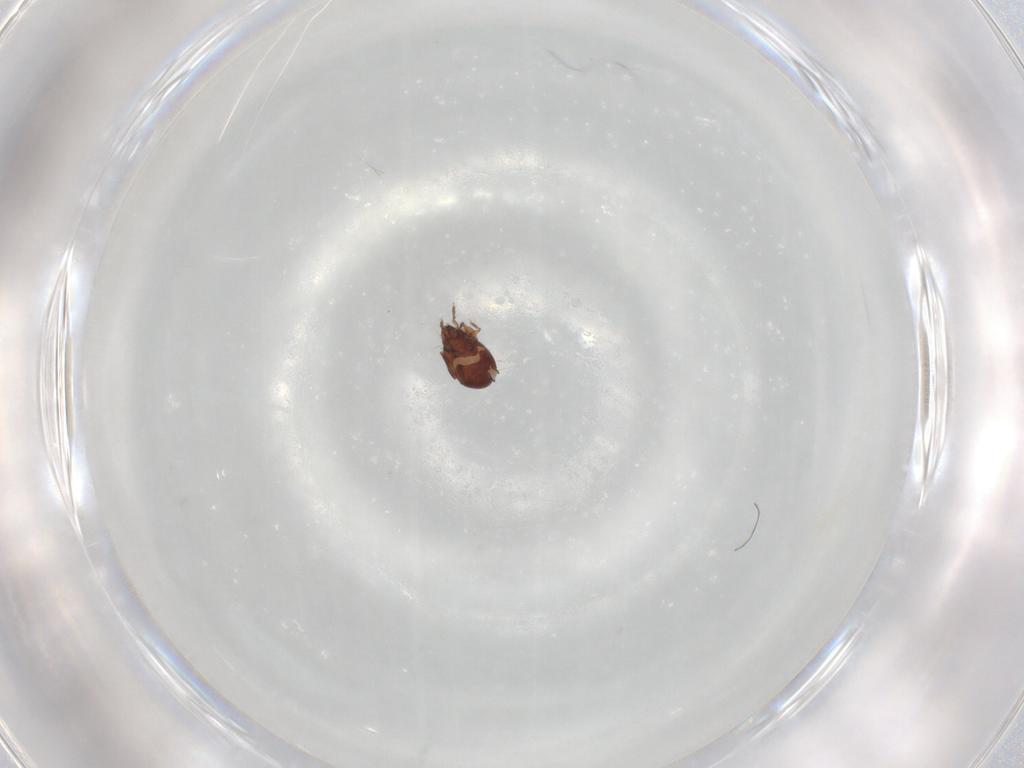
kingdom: Animalia
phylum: Arthropoda
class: Arachnida
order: Sarcoptiformes
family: Humerobatidae
